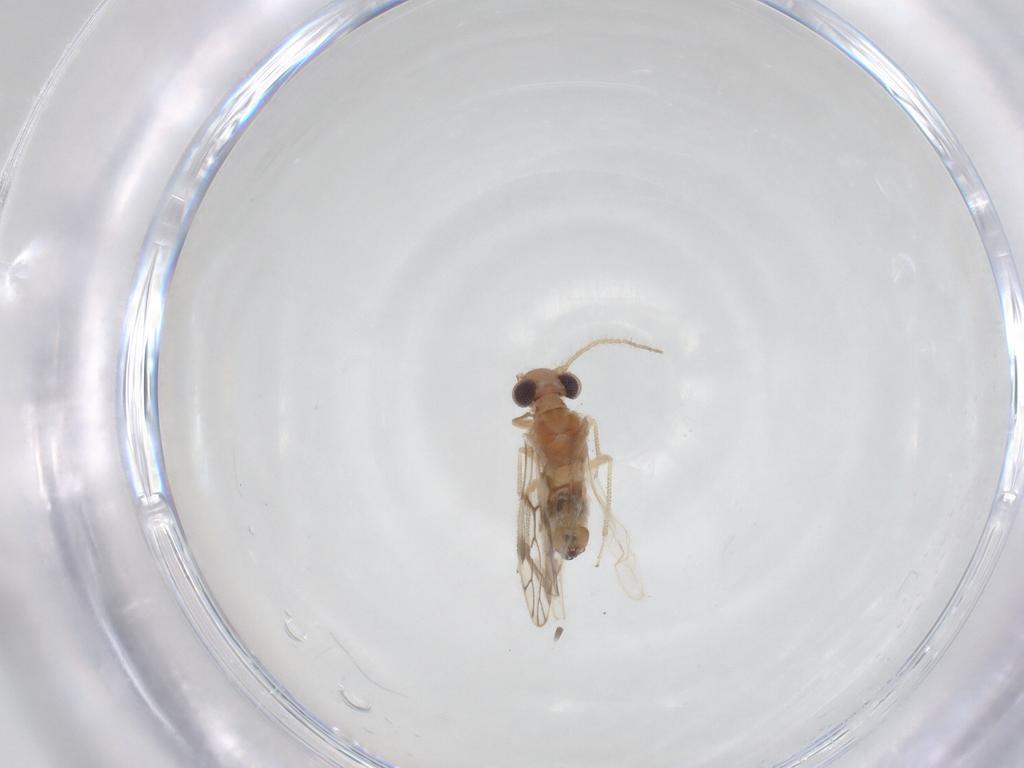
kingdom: Animalia
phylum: Arthropoda
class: Insecta
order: Psocodea
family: Pseudocaeciliidae
